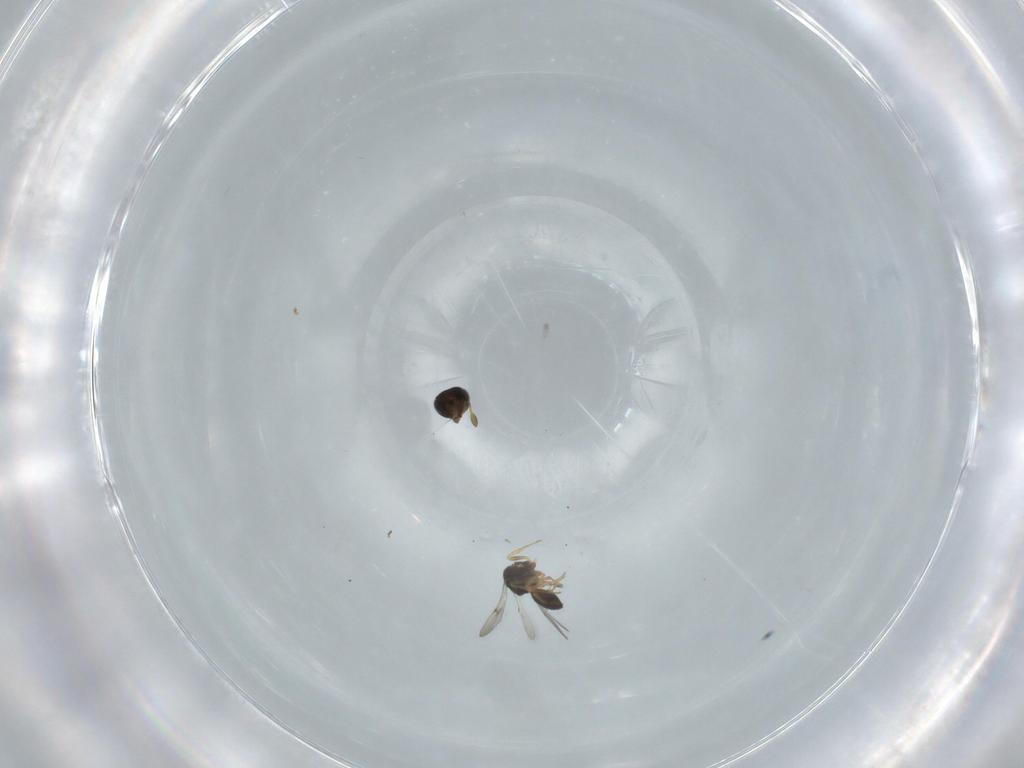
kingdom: Animalia
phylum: Arthropoda
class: Insecta
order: Hymenoptera
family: Scelionidae
